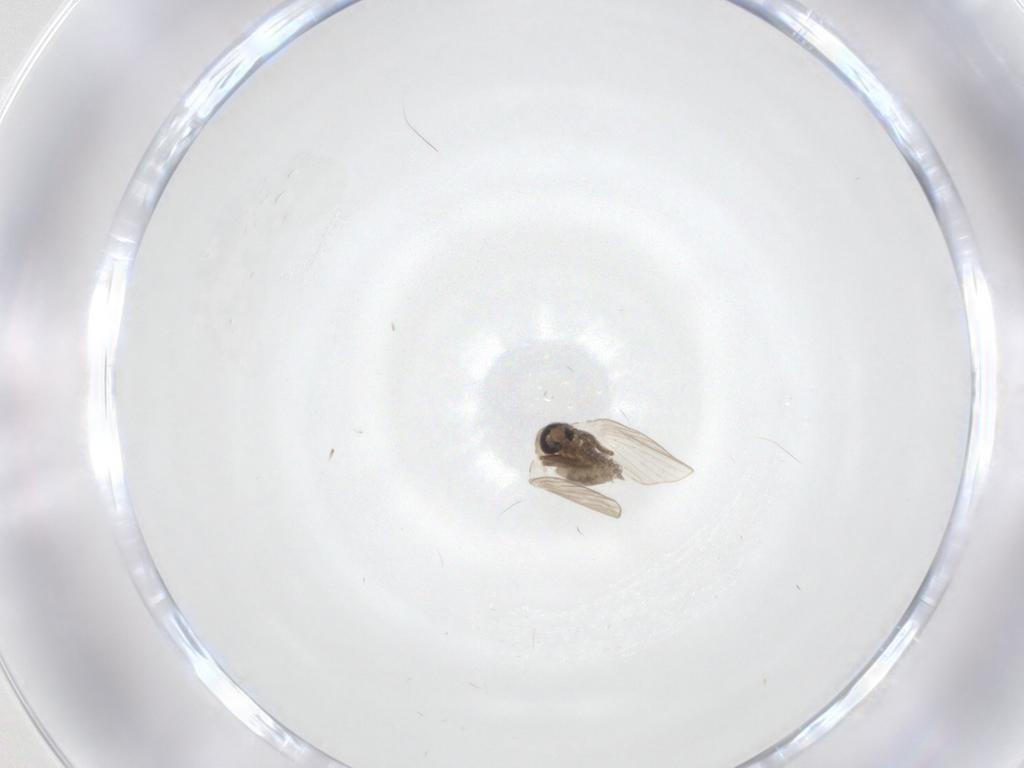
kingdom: Animalia
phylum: Arthropoda
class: Insecta
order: Diptera
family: Psychodidae
